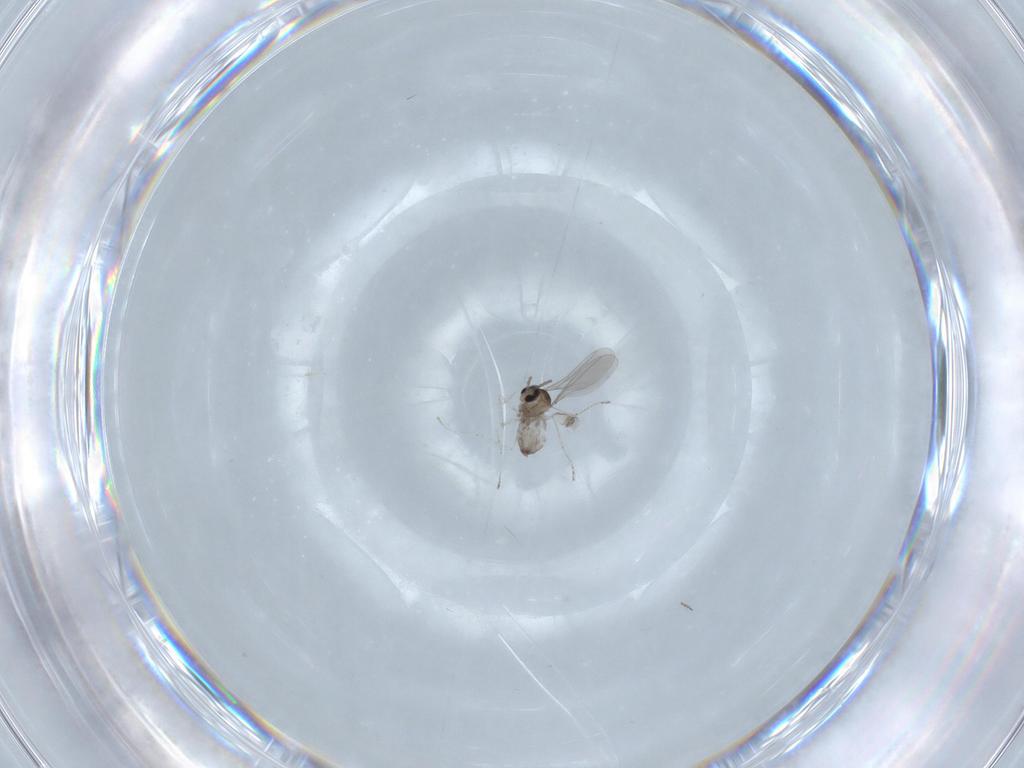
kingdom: Animalia
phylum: Arthropoda
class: Insecta
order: Diptera
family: Cecidomyiidae
